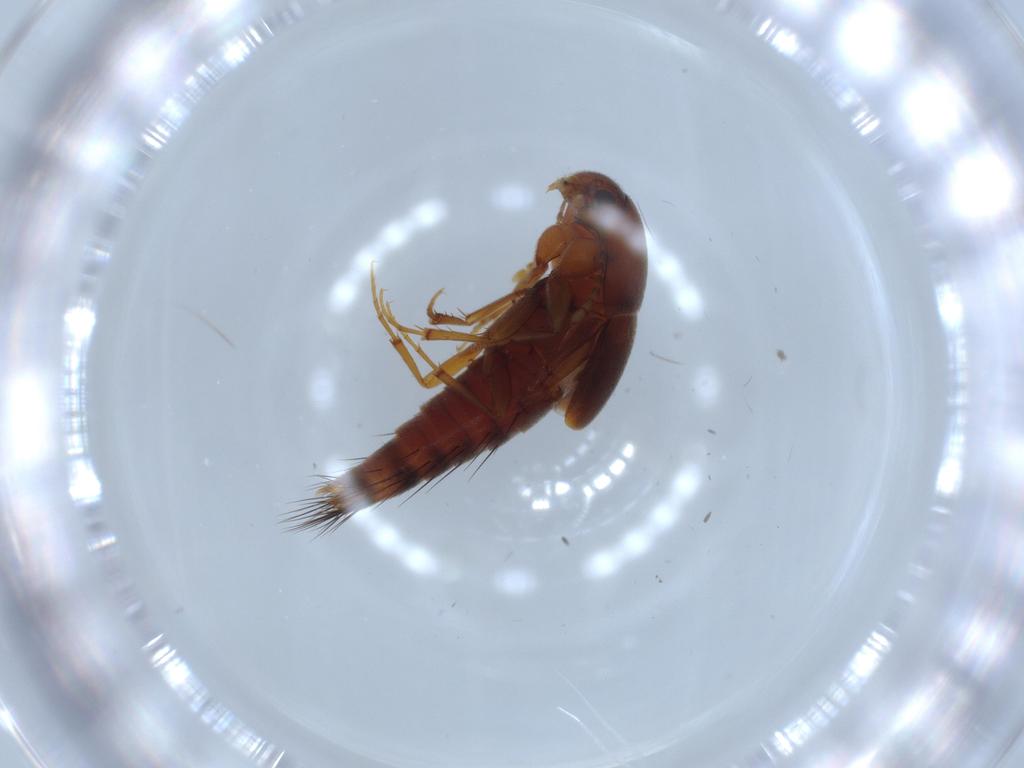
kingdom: Animalia
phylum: Arthropoda
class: Insecta
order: Coleoptera
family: Staphylinidae
